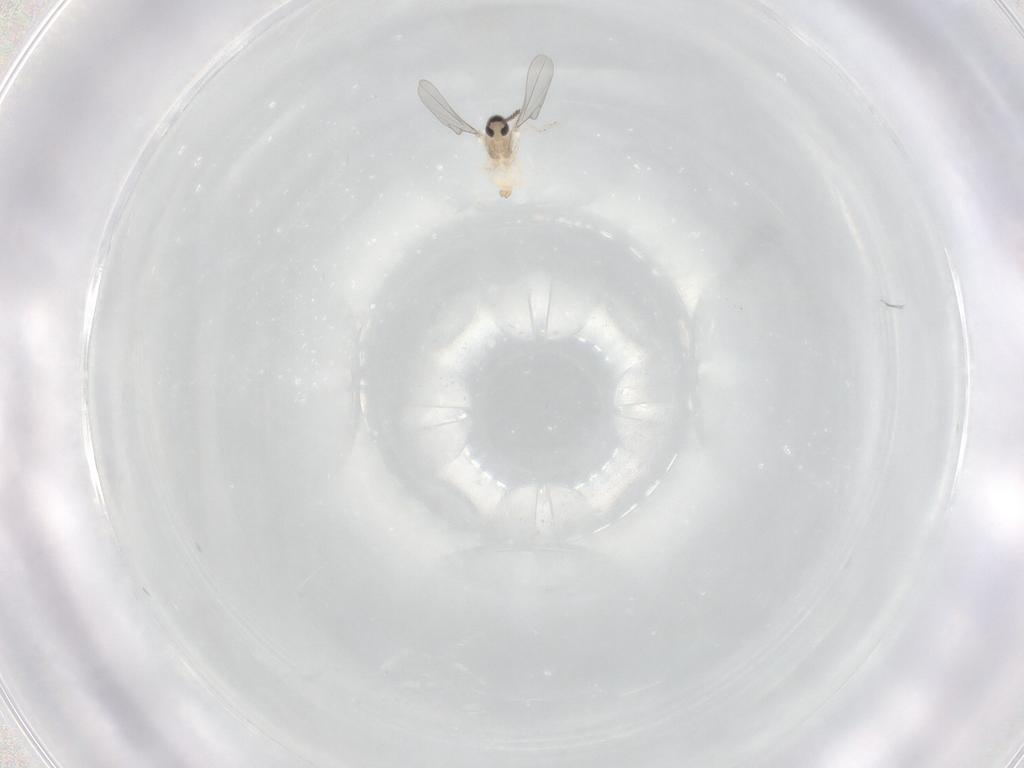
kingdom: Animalia
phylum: Arthropoda
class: Insecta
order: Diptera
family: Cecidomyiidae
